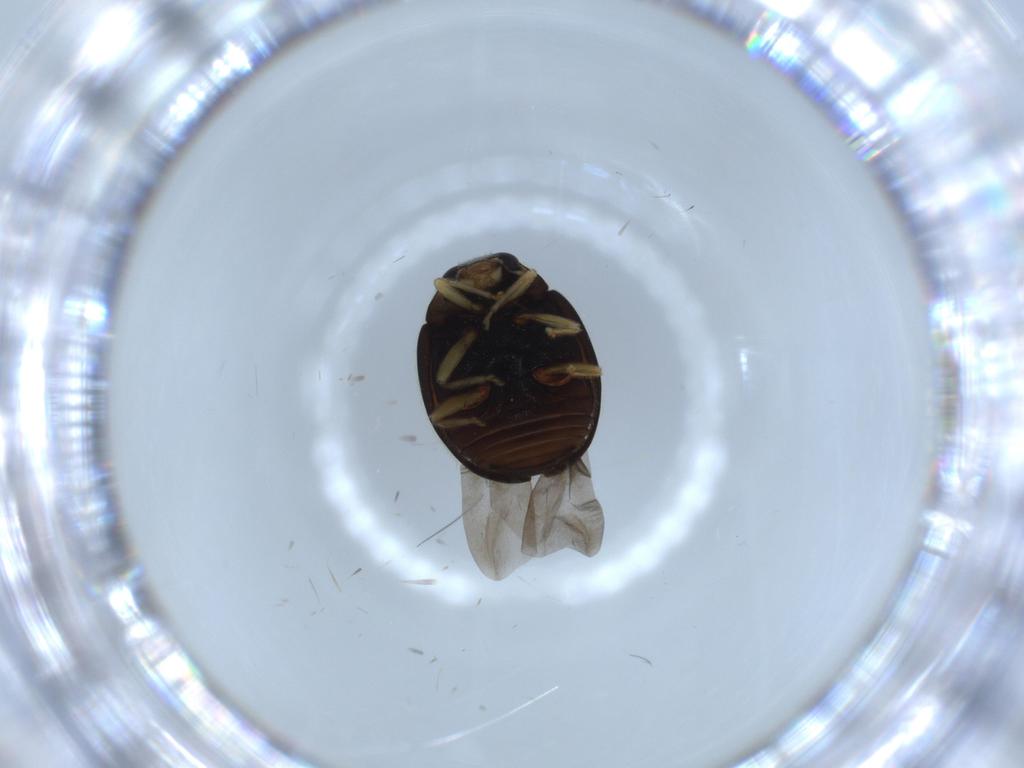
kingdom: Animalia
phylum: Arthropoda
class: Insecta
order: Coleoptera
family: Coccinellidae
